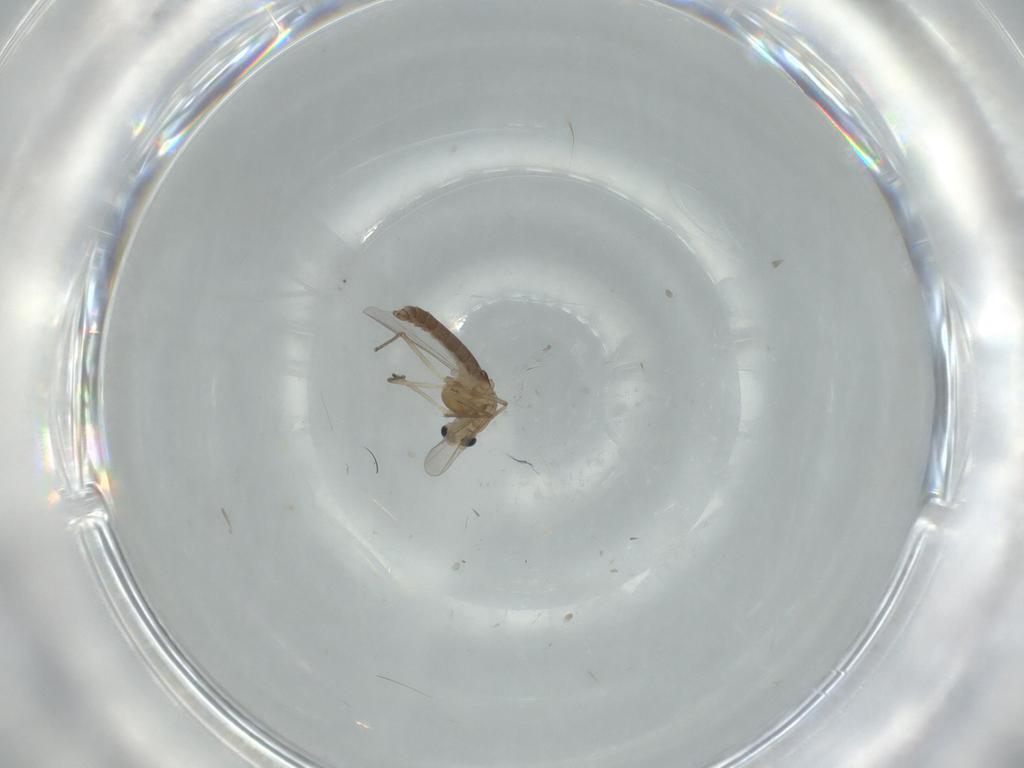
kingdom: Animalia
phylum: Arthropoda
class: Insecta
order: Diptera
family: Chironomidae
